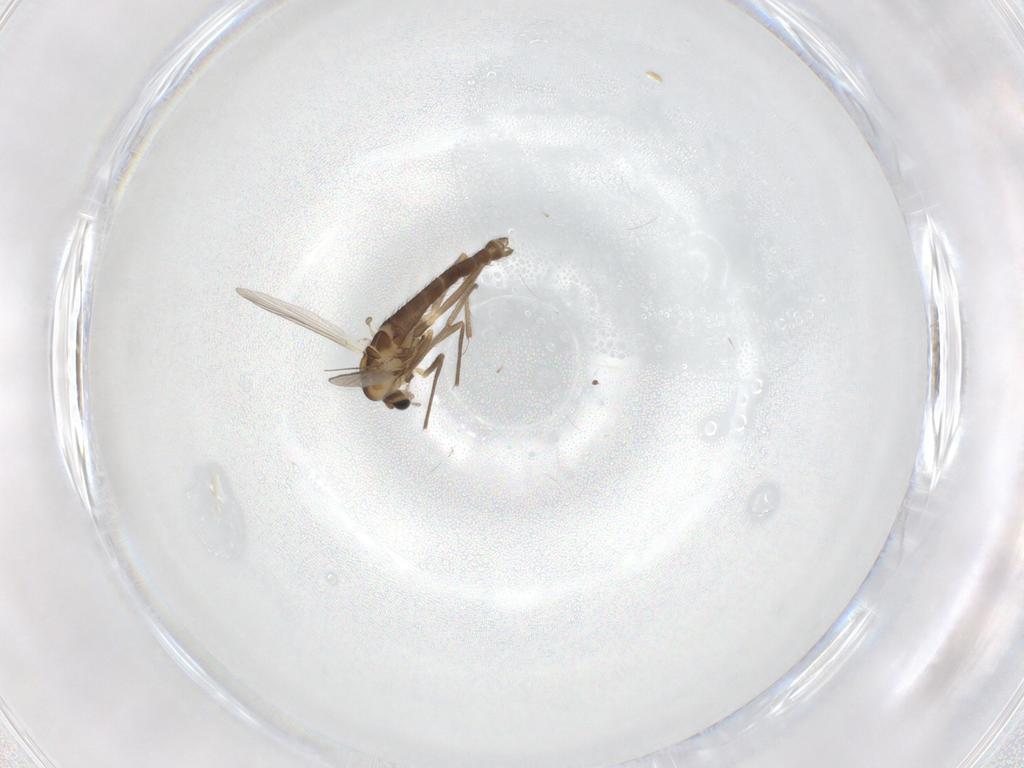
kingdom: Animalia
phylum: Arthropoda
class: Insecta
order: Diptera
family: Chironomidae
